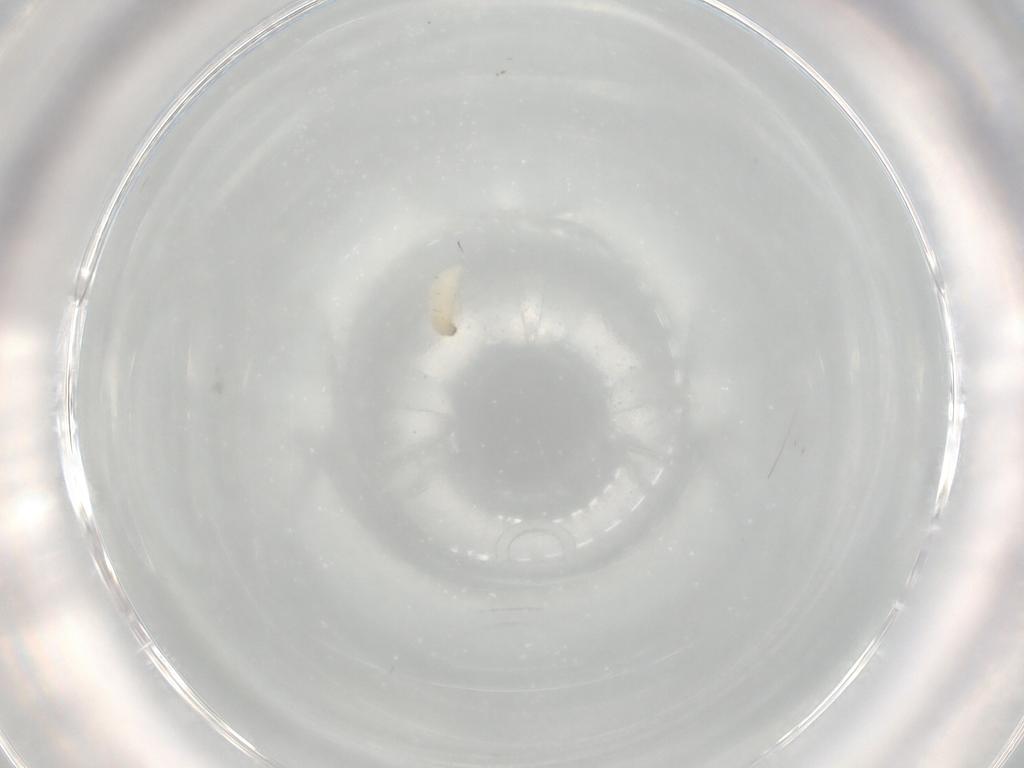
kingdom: Animalia
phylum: Arthropoda
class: Insecta
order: Coleoptera
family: Chrysomelidae
